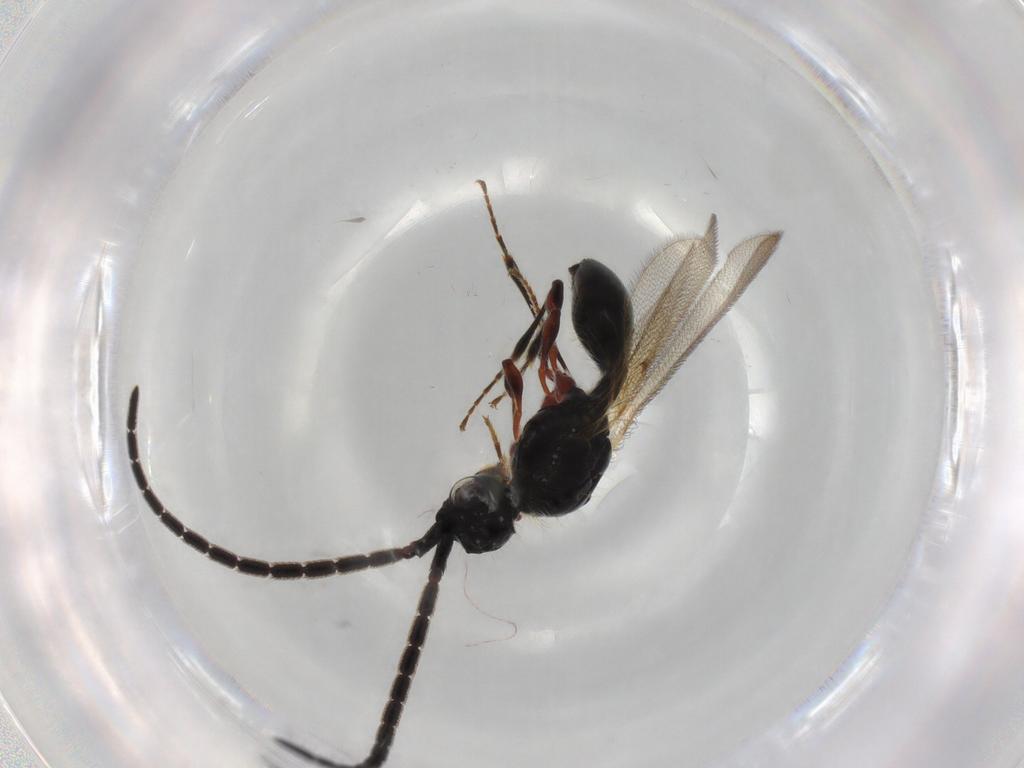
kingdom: Animalia
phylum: Arthropoda
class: Insecta
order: Hymenoptera
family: Diapriidae
